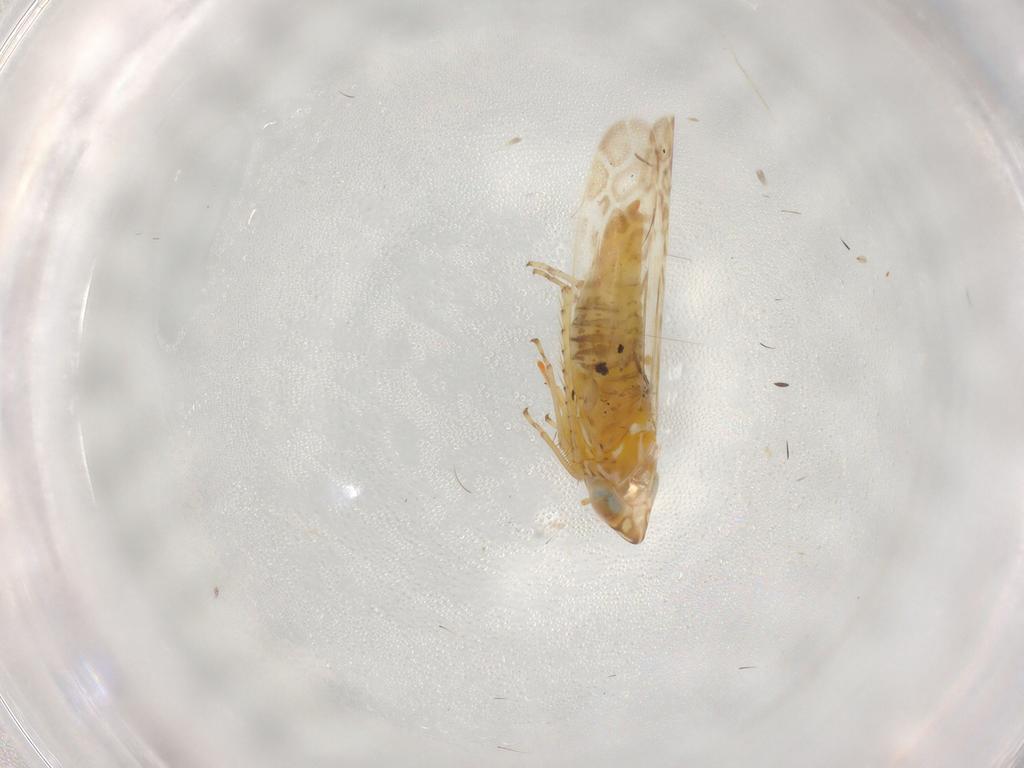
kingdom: Animalia
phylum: Arthropoda
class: Insecta
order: Hemiptera
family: Cicadellidae
